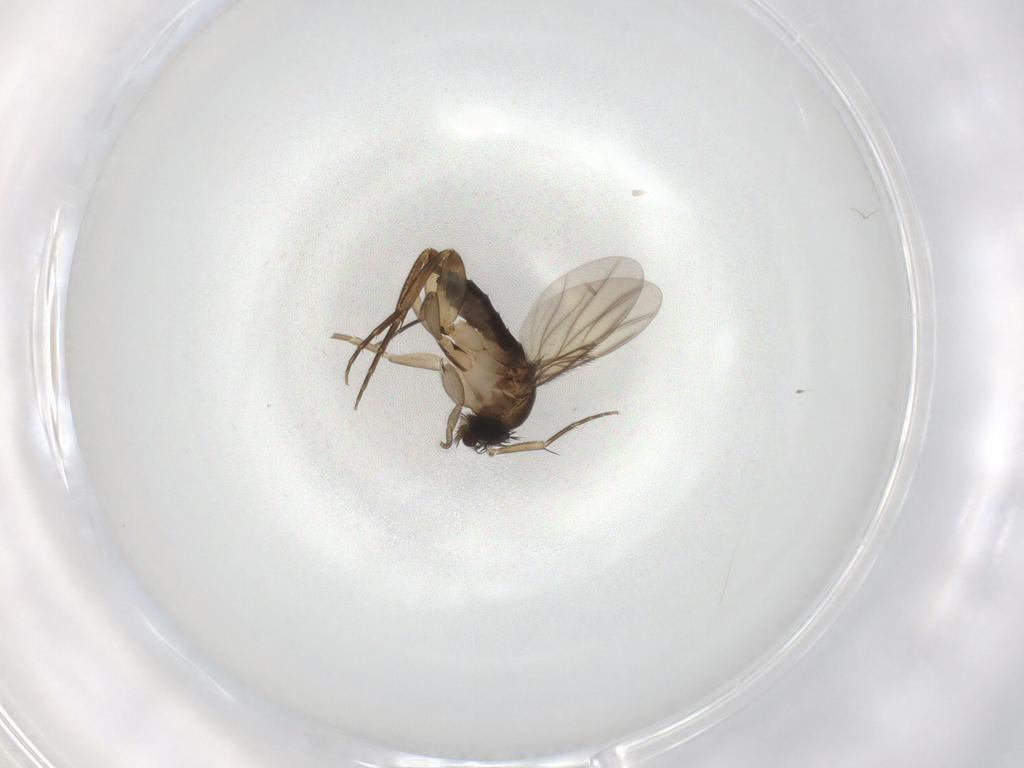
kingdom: Animalia
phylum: Arthropoda
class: Insecta
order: Diptera
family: Phoridae
